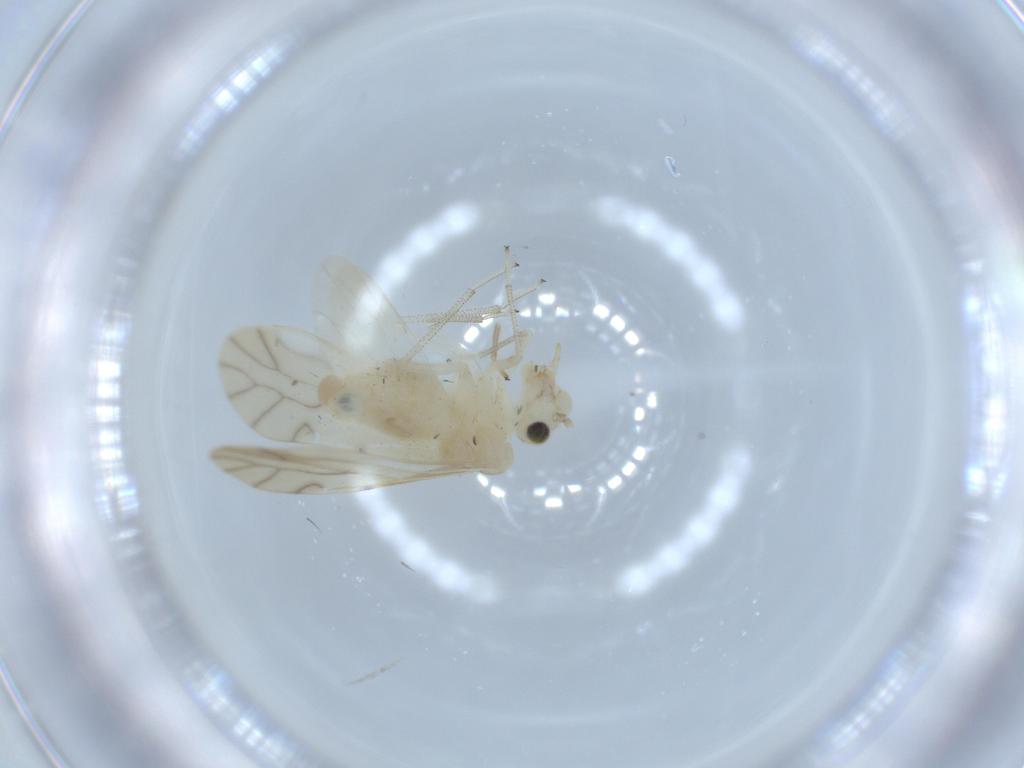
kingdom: Animalia
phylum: Arthropoda
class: Insecta
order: Psocodea
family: Caeciliusidae
